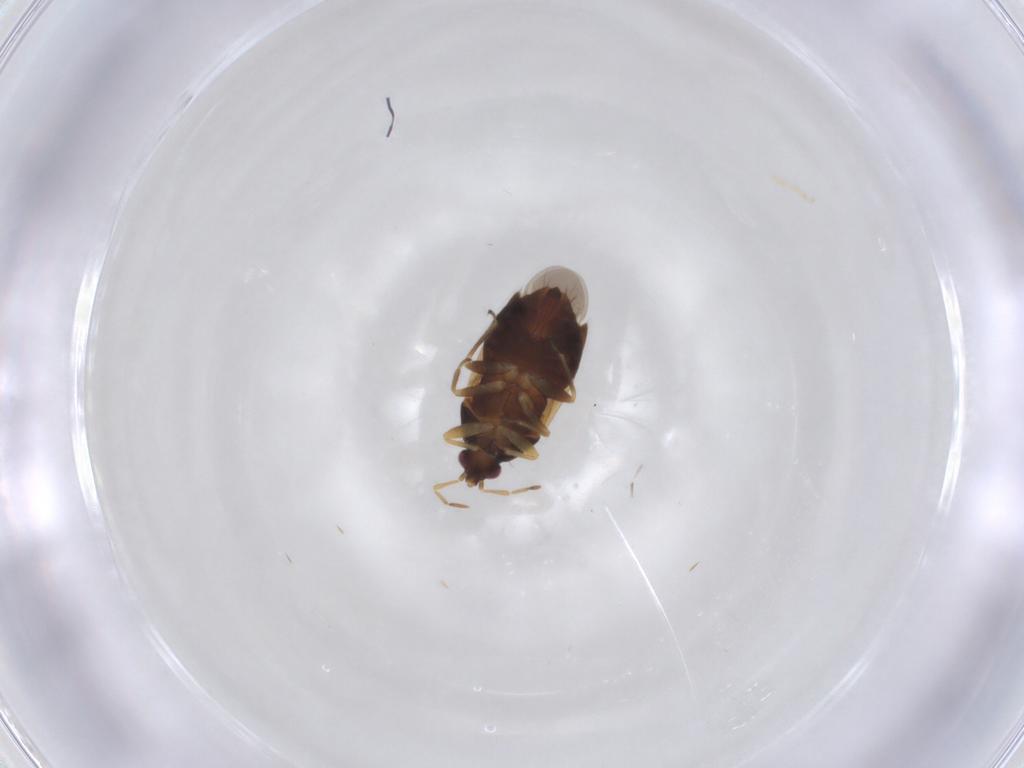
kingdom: Animalia
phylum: Arthropoda
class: Insecta
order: Hemiptera
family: Anthocoridae
